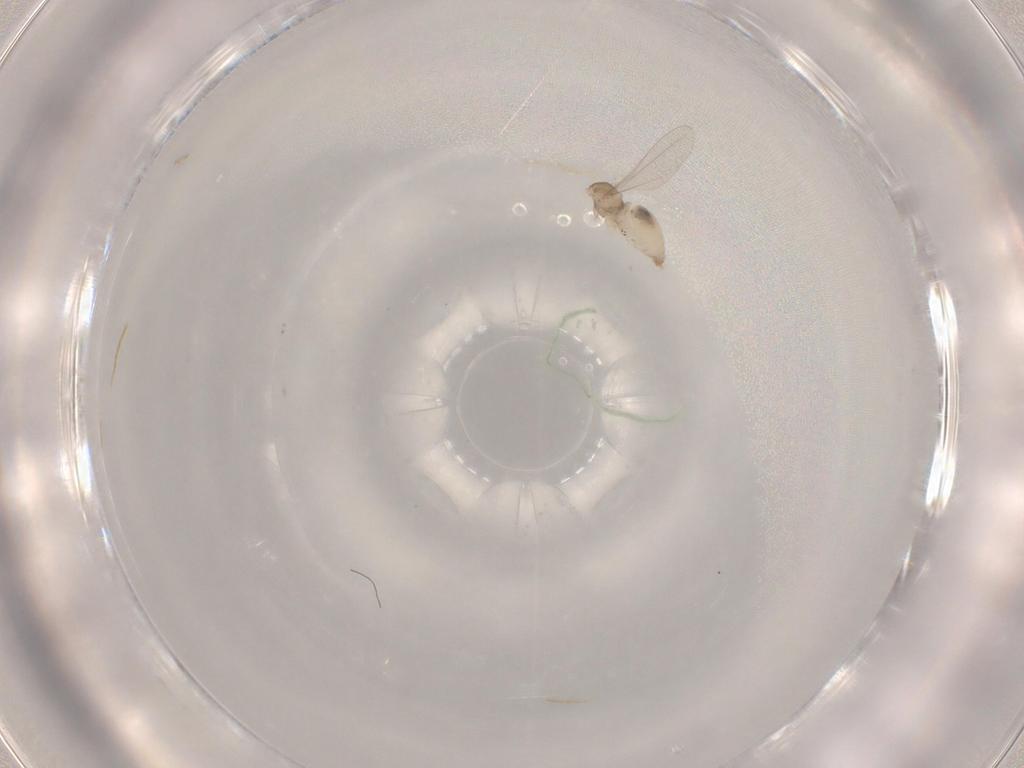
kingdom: Animalia
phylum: Arthropoda
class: Insecta
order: Diptera
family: Cecidomyiidae
